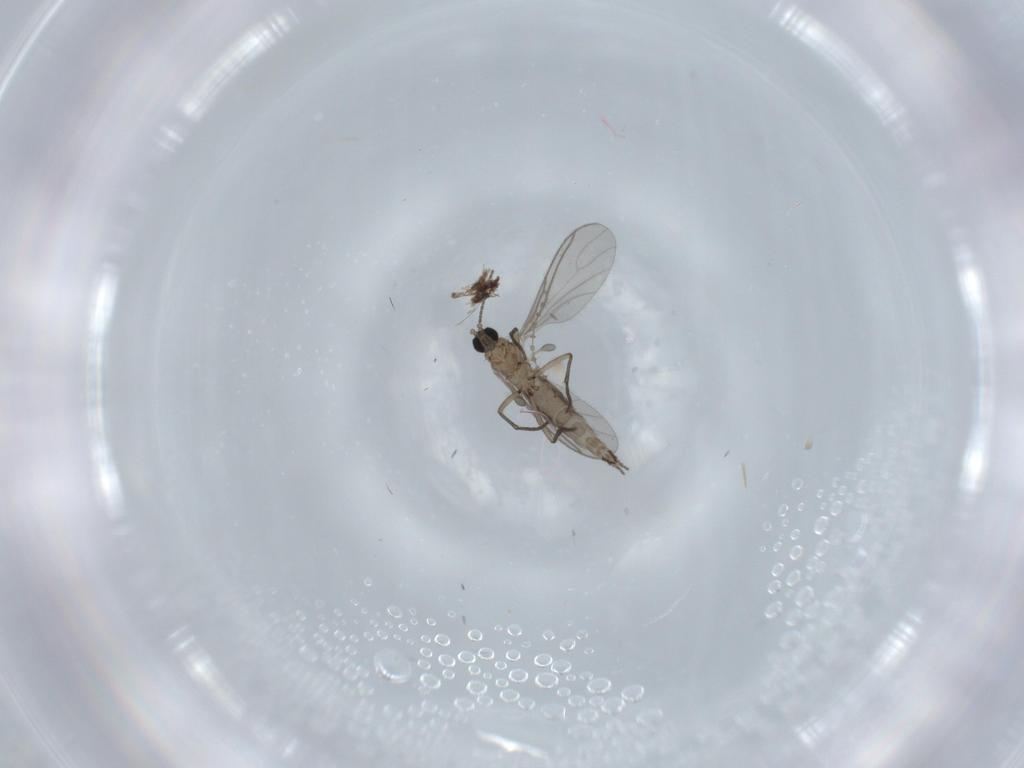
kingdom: Animalia
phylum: Arthropoda
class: Insecta
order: Diptera
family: Sciaridae
